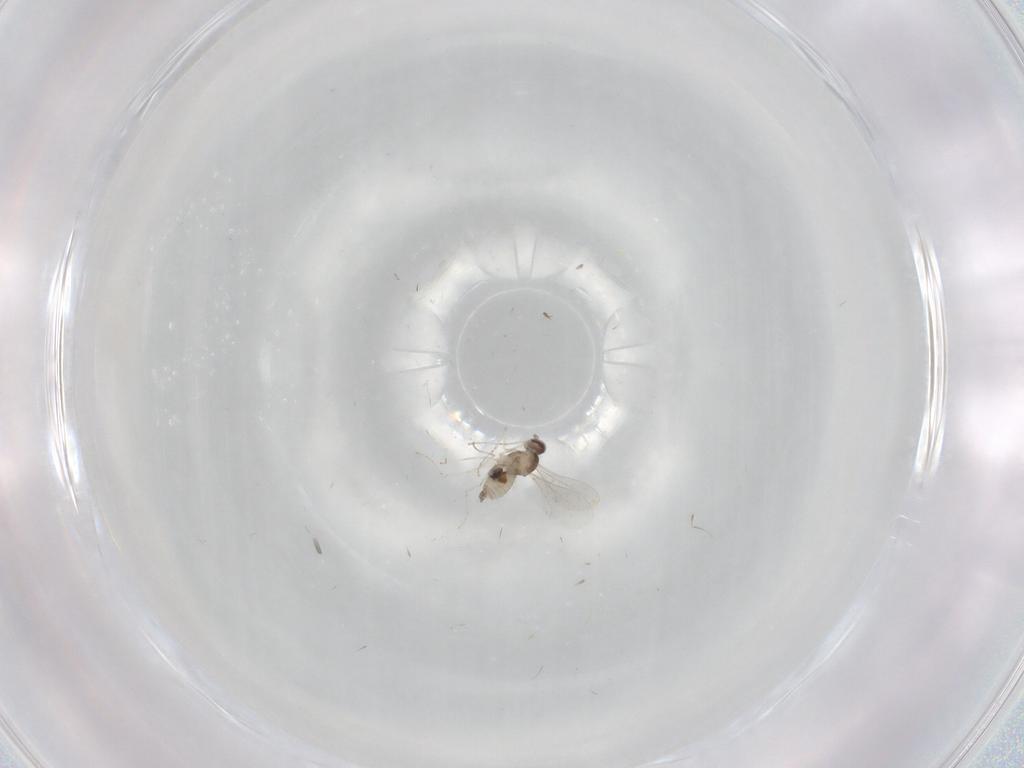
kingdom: Animalia
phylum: Arthropoda
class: Insecta
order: Diptera
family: Cecidomyiidae
